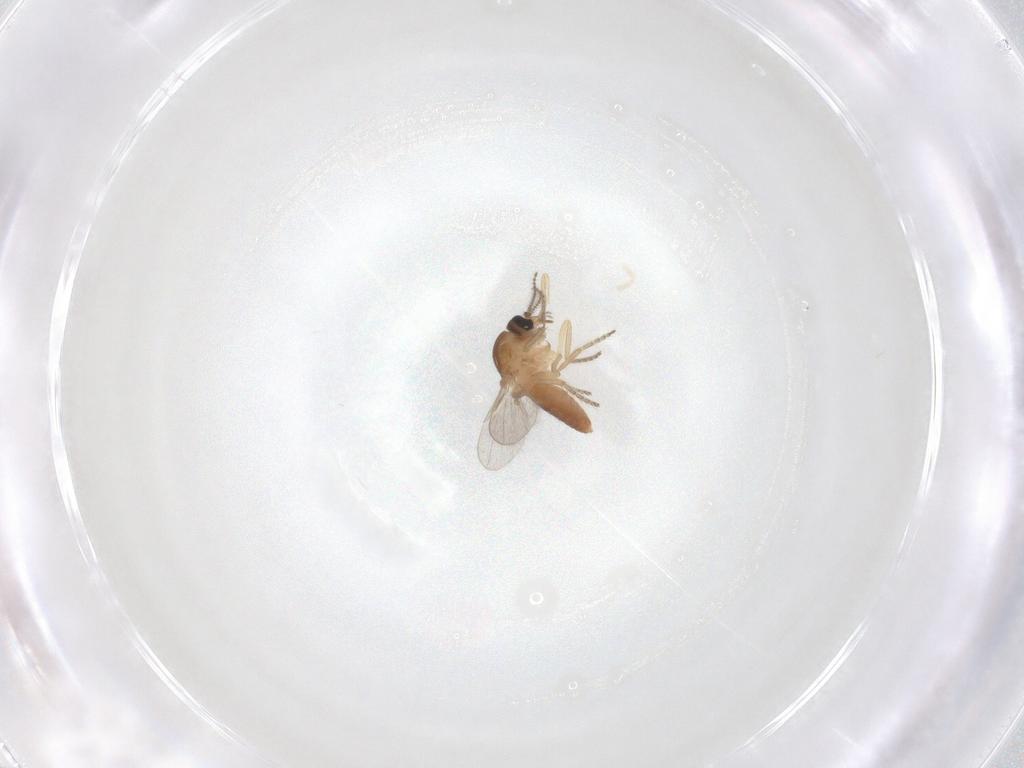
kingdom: Animalia
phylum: Arthropoda
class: Insecta
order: Diptera
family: Ceratopogonidae
